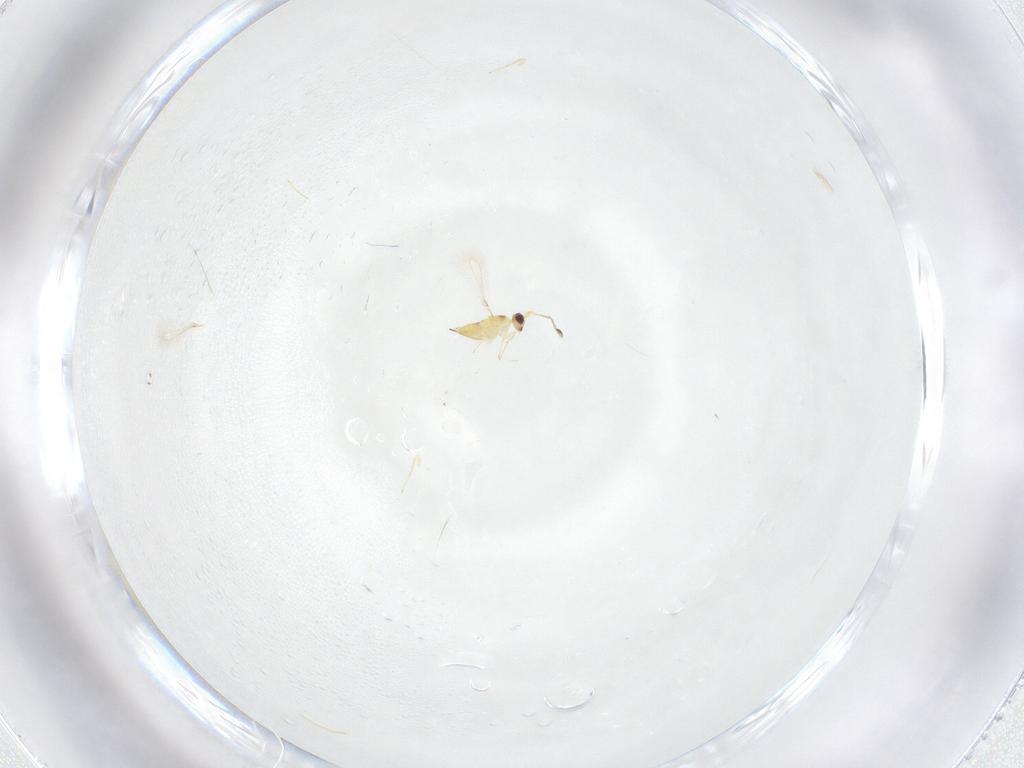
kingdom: Animalia
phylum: Arthropoda
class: Insecta
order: Hymenoptera
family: Mymaridae
